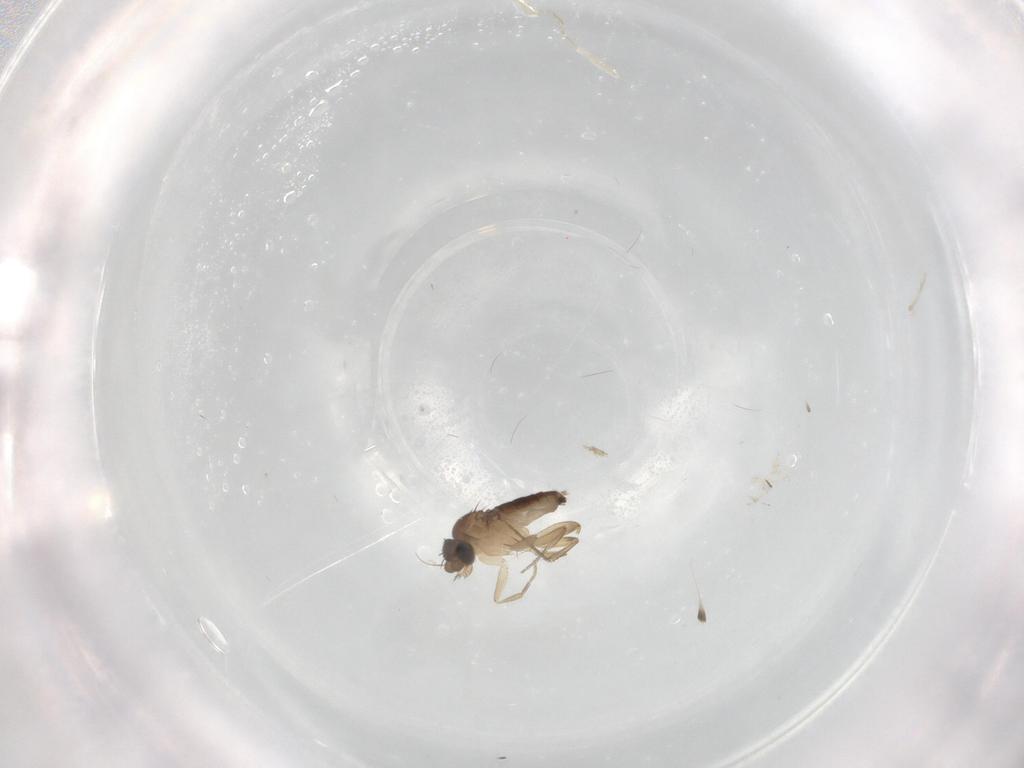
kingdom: Animalia
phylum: Arthropoda
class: Insecta
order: Diptera
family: Phoridae
